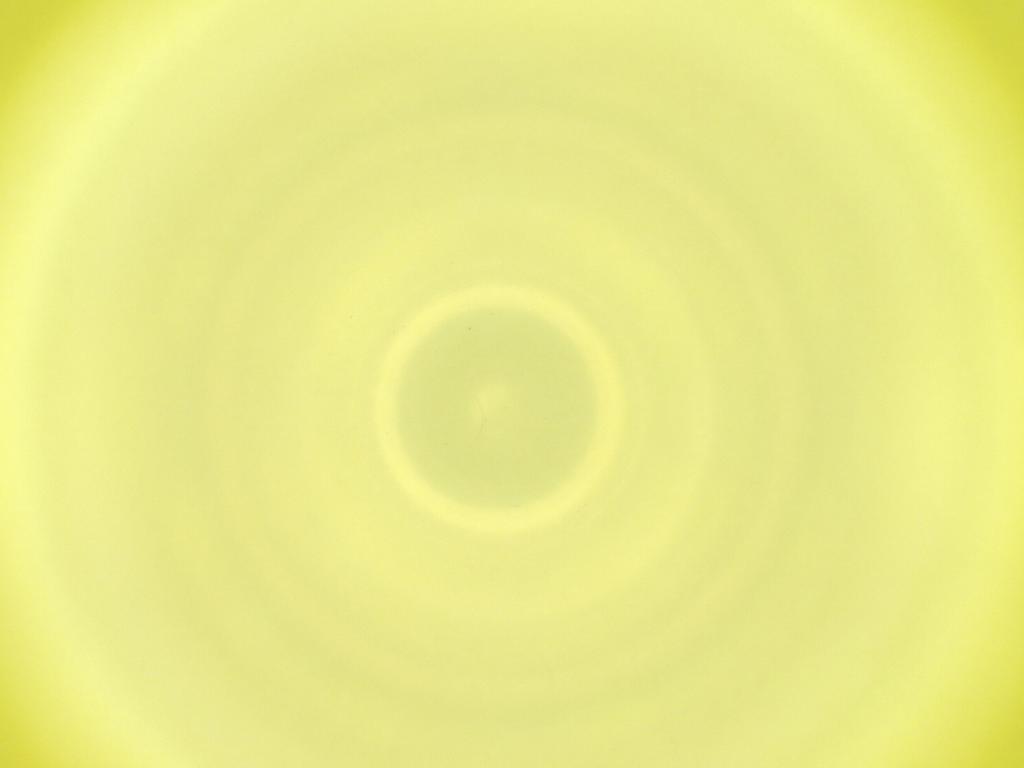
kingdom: Animalia
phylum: Arthropoda
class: Insecta
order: Diptera
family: Cecidomyiidae
